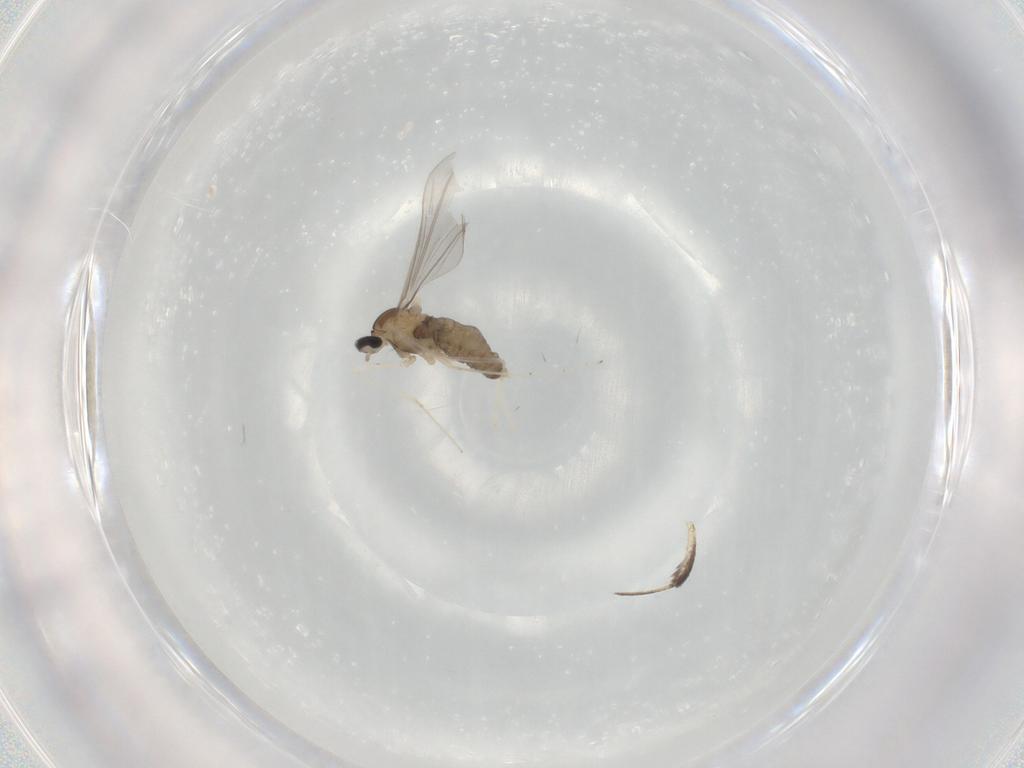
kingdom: Animalia
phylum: Arthropoda
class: Insecta
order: Diptera
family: Cecidomyiidae
